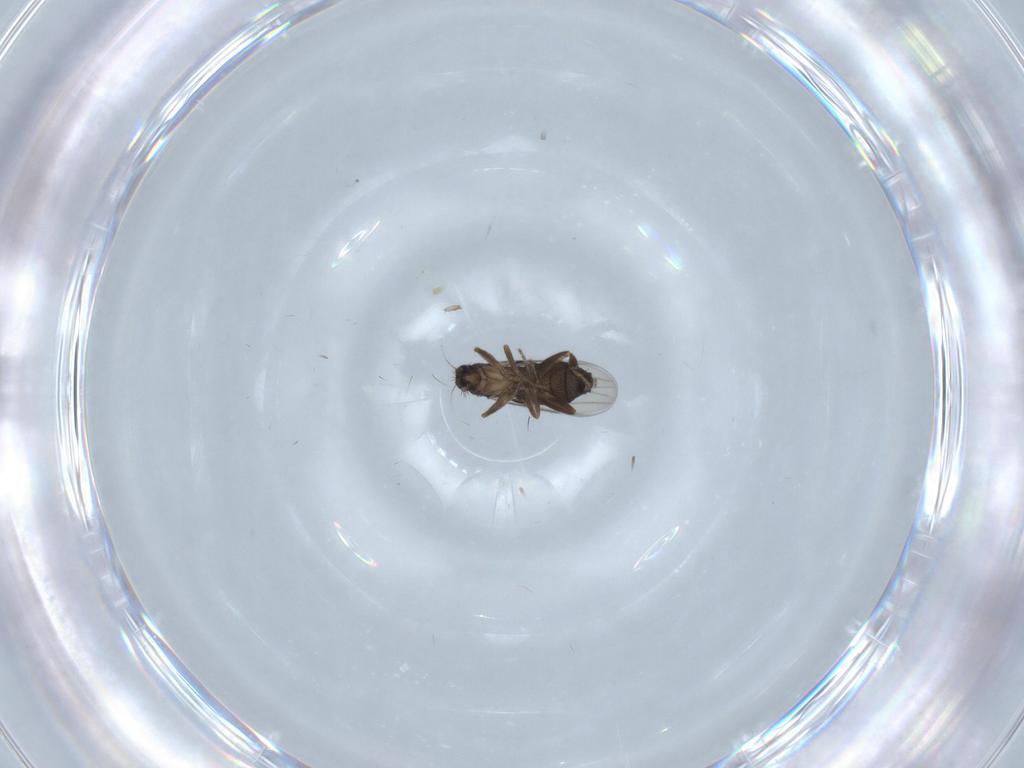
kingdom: Animalia
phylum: Arthropoda
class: Insecta
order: Diptera
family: Phoridae
